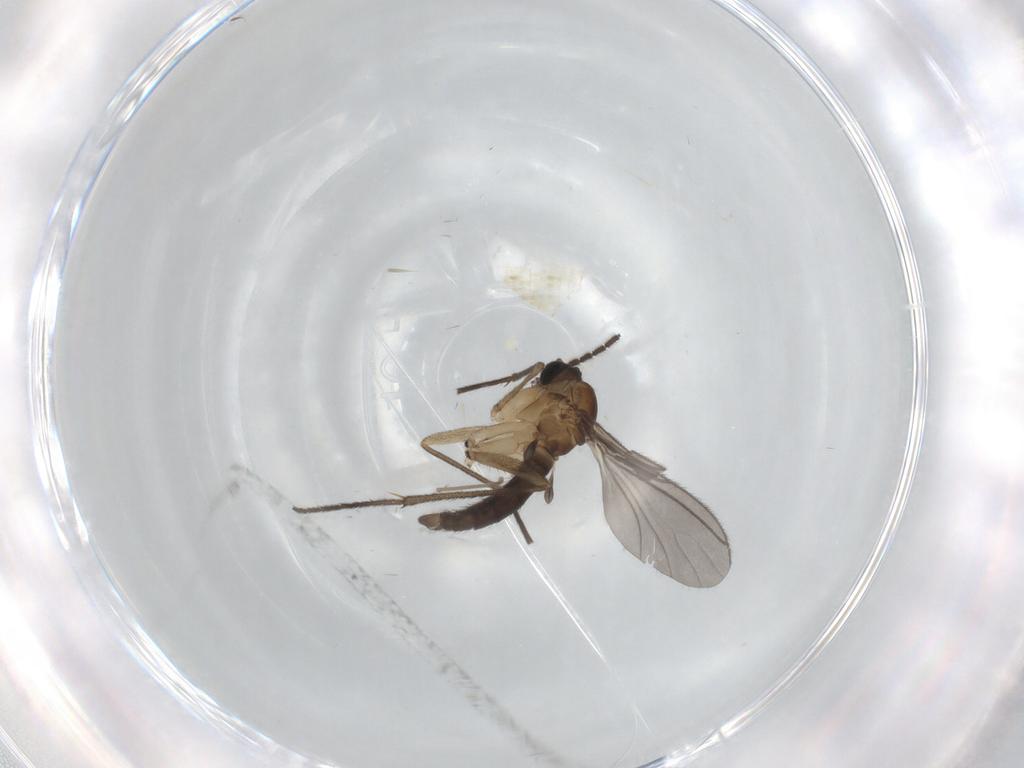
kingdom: Animalia
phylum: Arthropoda
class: Insecta
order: Diptera
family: Sciaridae
